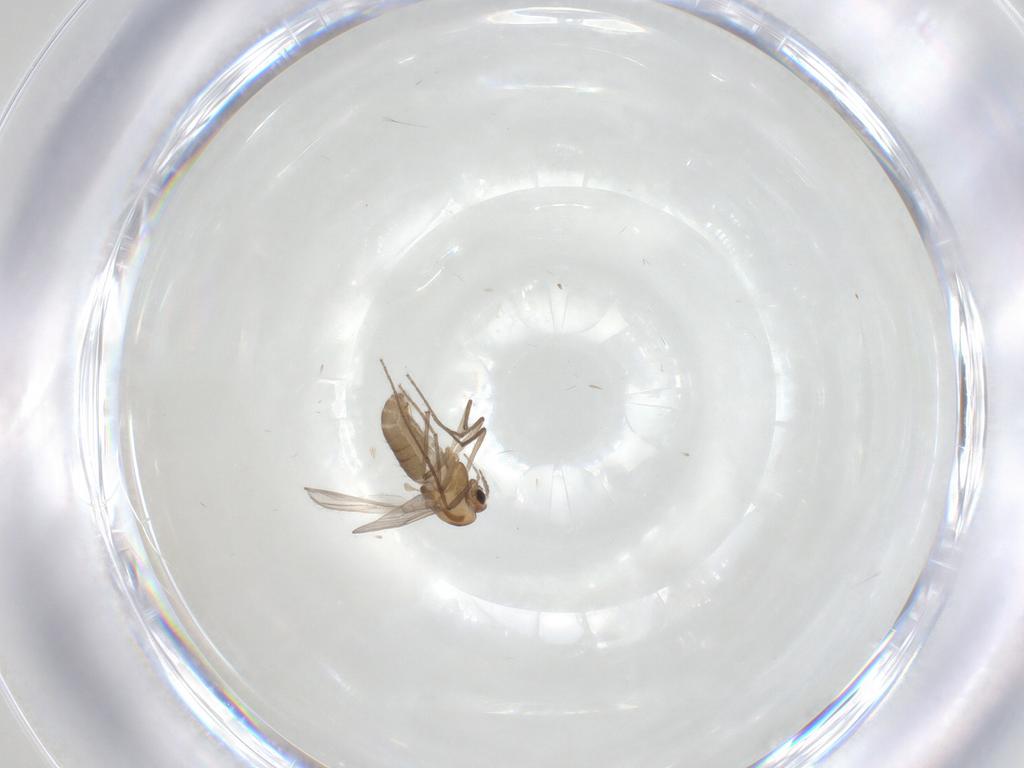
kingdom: Animalia
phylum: Arthropoda
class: Insecta
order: Diptera
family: Chironomidae
